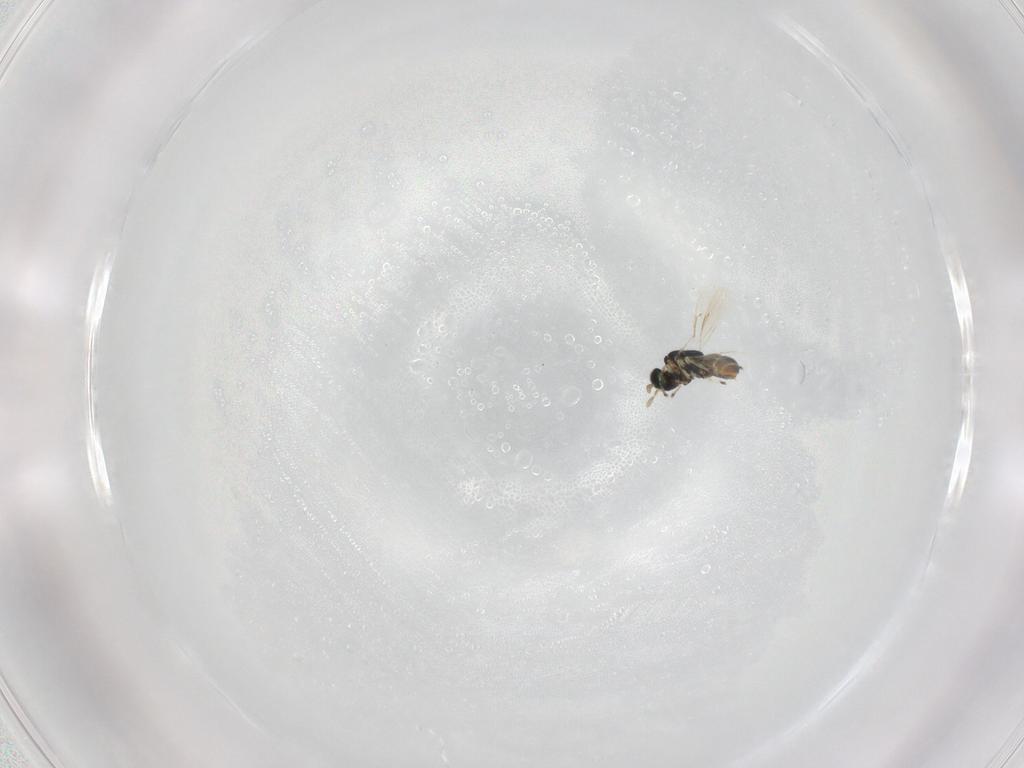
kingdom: Animalia
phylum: Arthropoda
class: Insecta
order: Hymenoptera
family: Eulophidae
